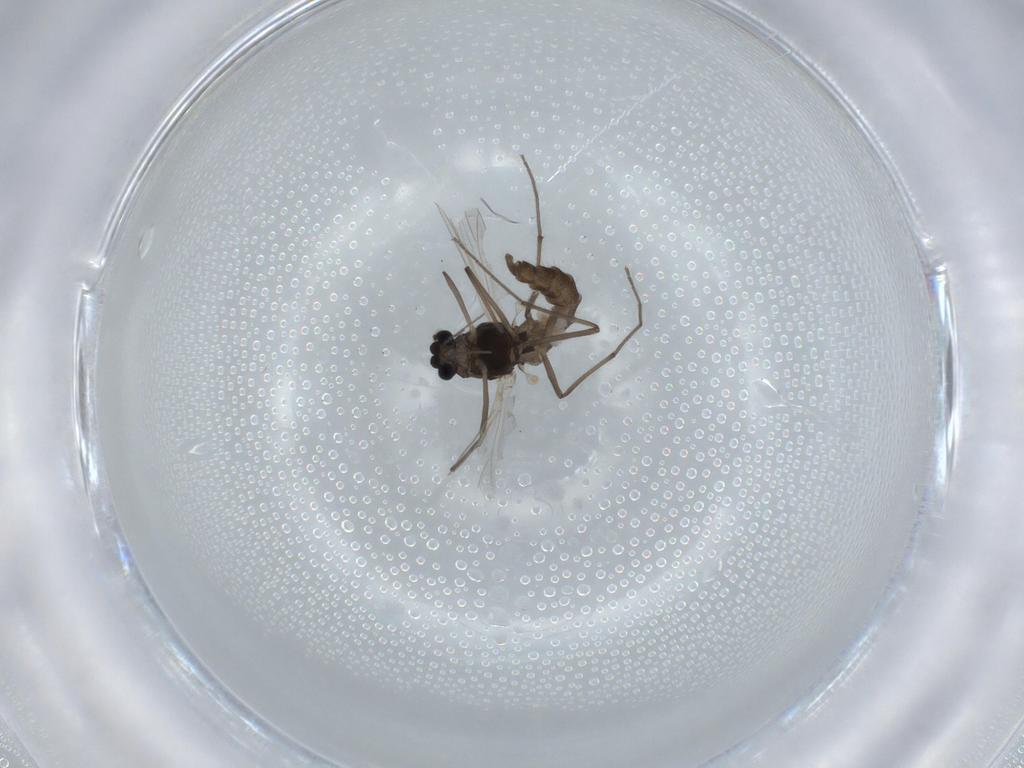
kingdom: Animalia
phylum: Arthropoda
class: Insecta
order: Diptera
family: Chironomidae
